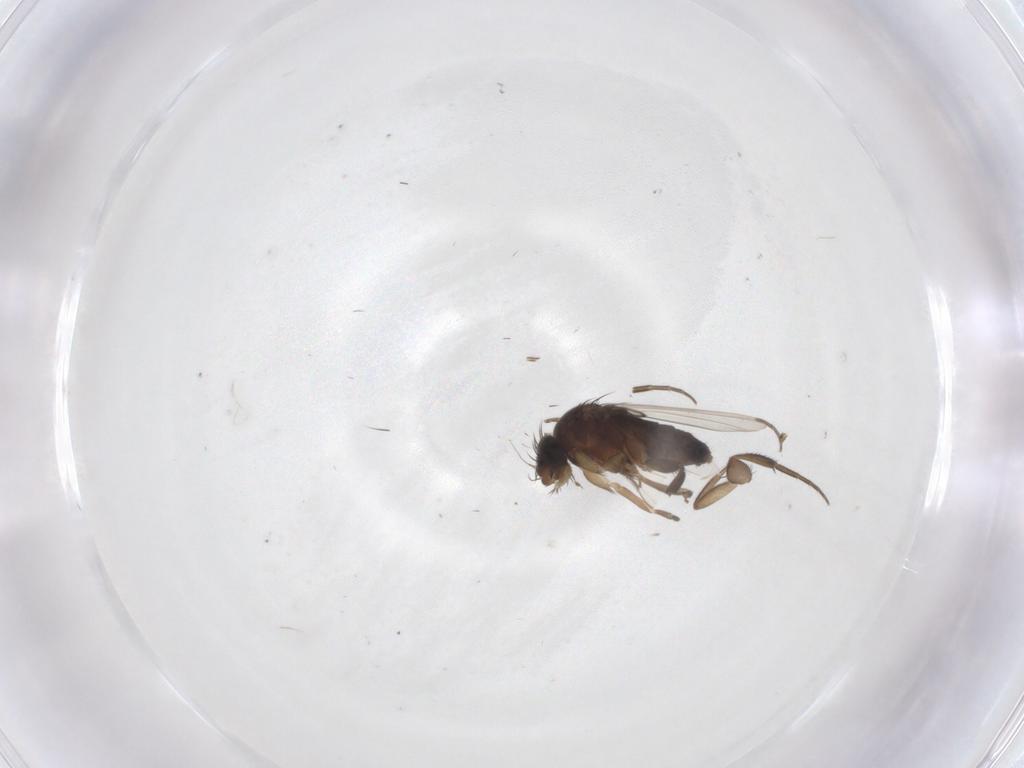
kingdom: Animalia
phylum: Arthropoda
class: Insecta
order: Diptera
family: Phoridae
